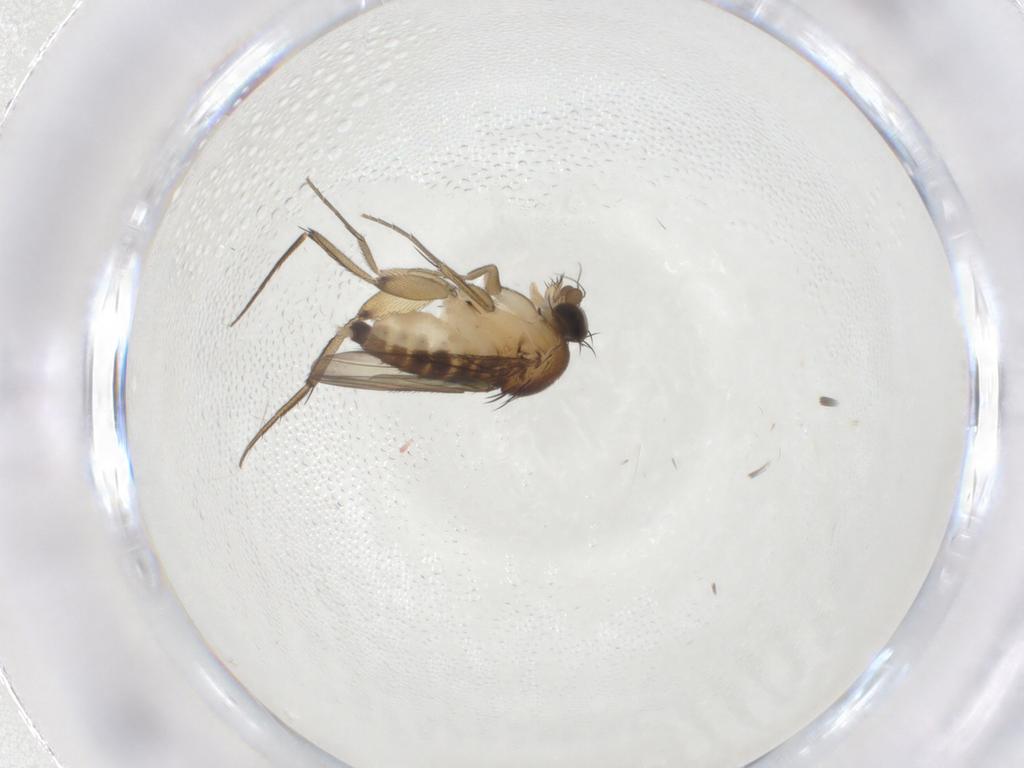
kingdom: Animalia
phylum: Arthropoda
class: Insecta
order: Diptera
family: Phoridae
